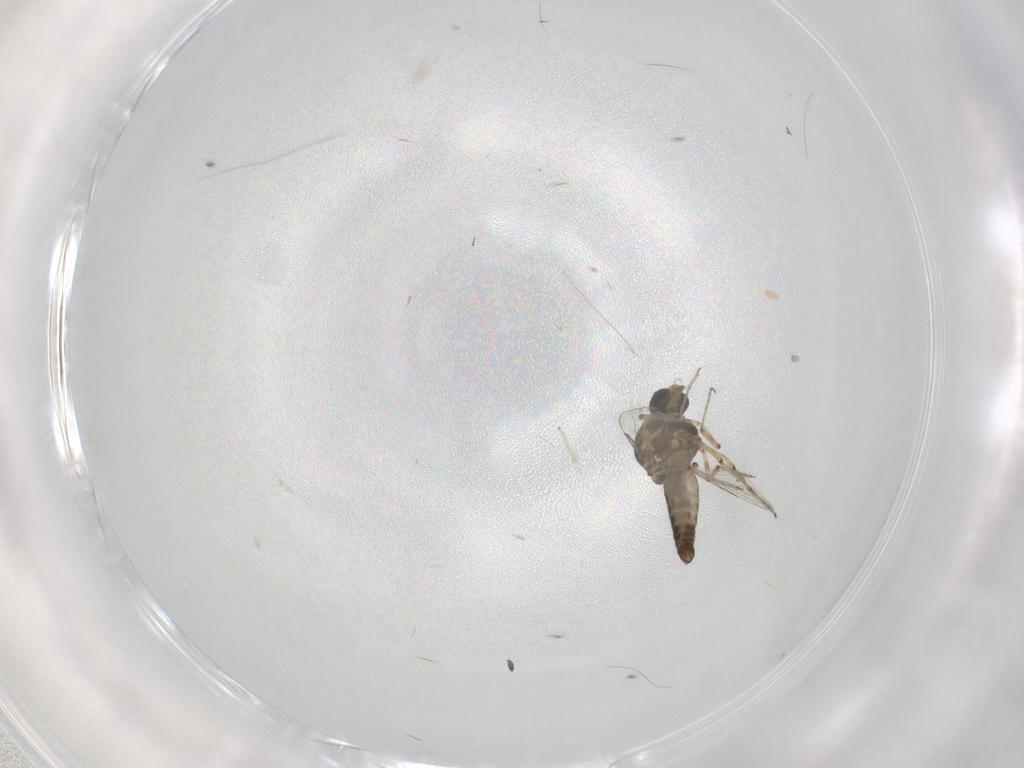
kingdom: Animalia
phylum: Arthropoda
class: Insecta
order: Diptera
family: Dolichopodidae
